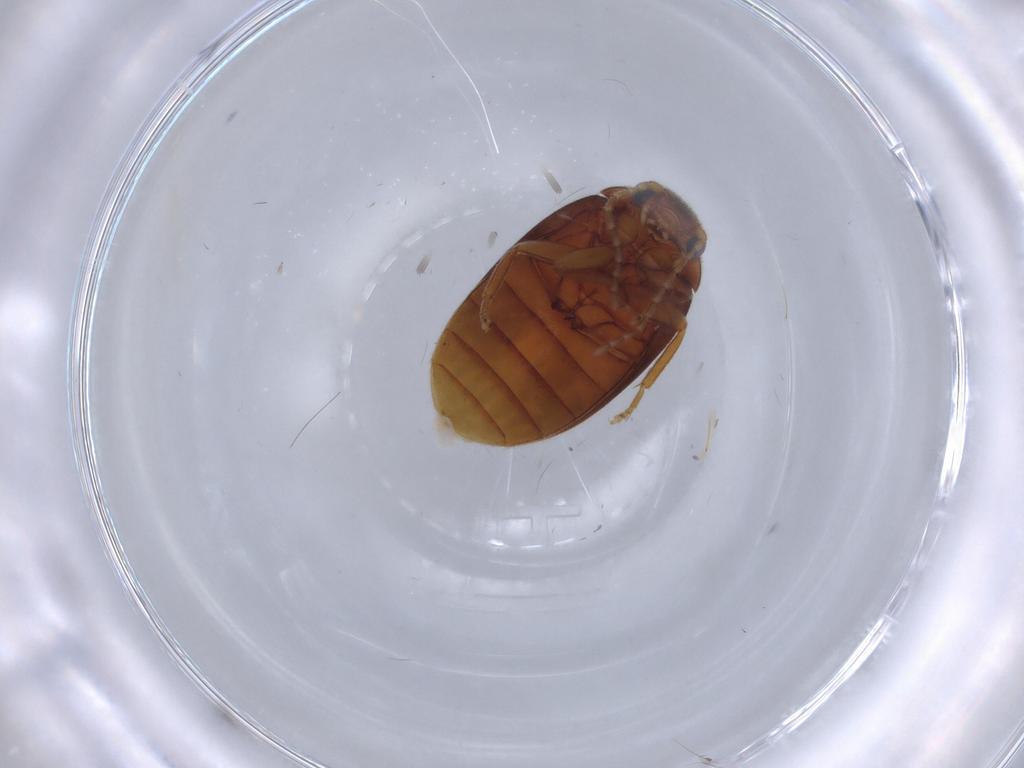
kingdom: Animalia
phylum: Arthropoda
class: Insecta
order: Coleoptera
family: Scirtidae
